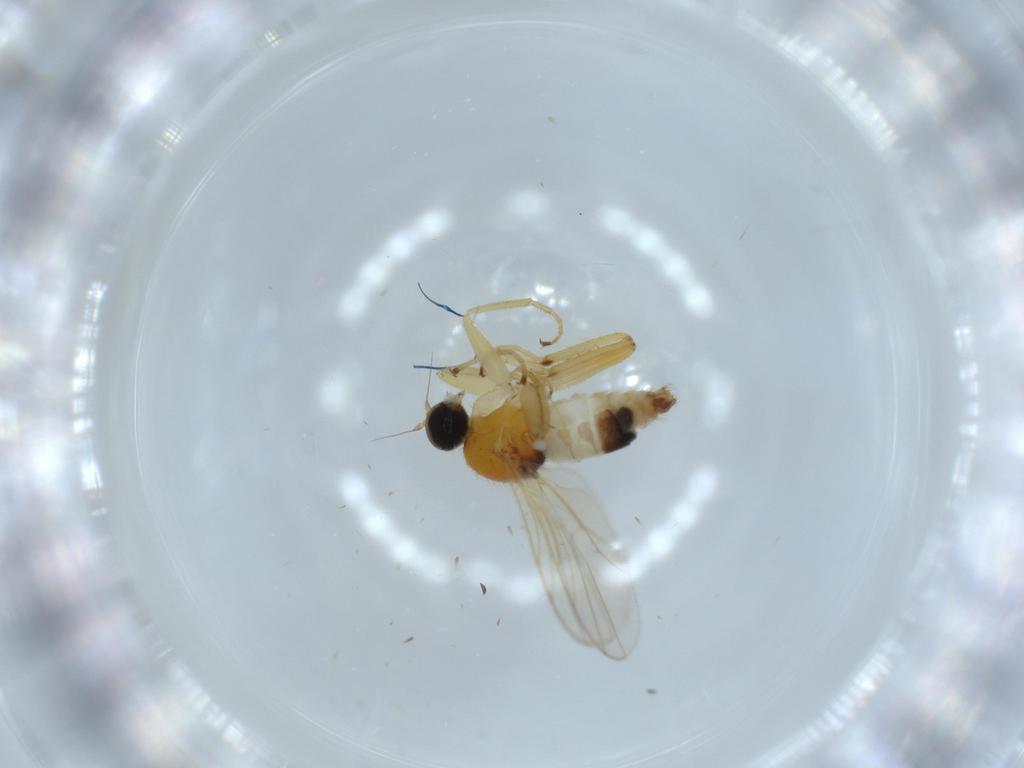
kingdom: Animalia
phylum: Arthropoda
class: Insecta
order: Diptera
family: Hybotidae
